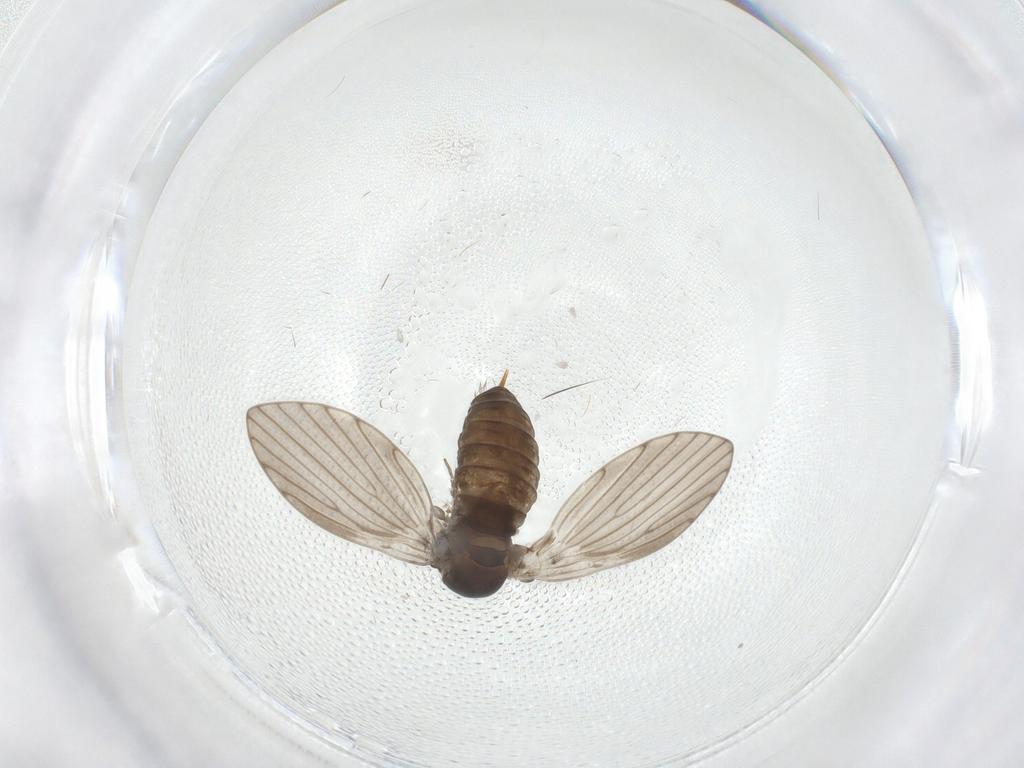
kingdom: Animalia
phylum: Arthropoda
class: Insecta
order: Diptera
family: Psychodidae
